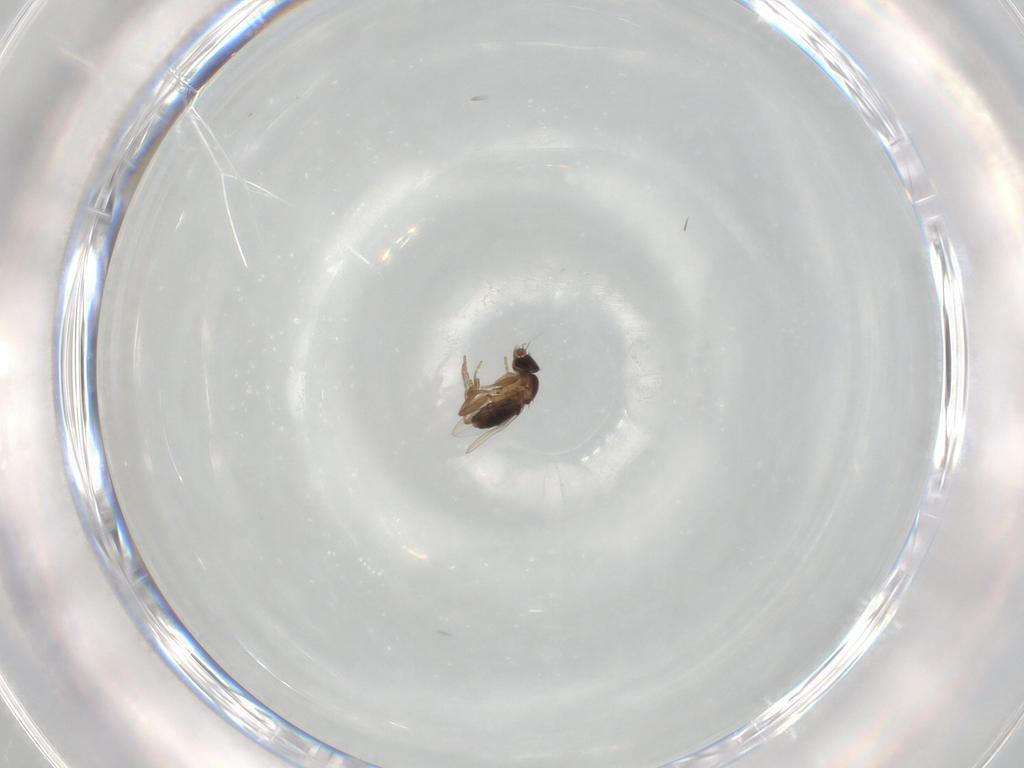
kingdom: Animalia
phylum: Arthropoda
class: Insecta
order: Diptera
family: Phoridae
